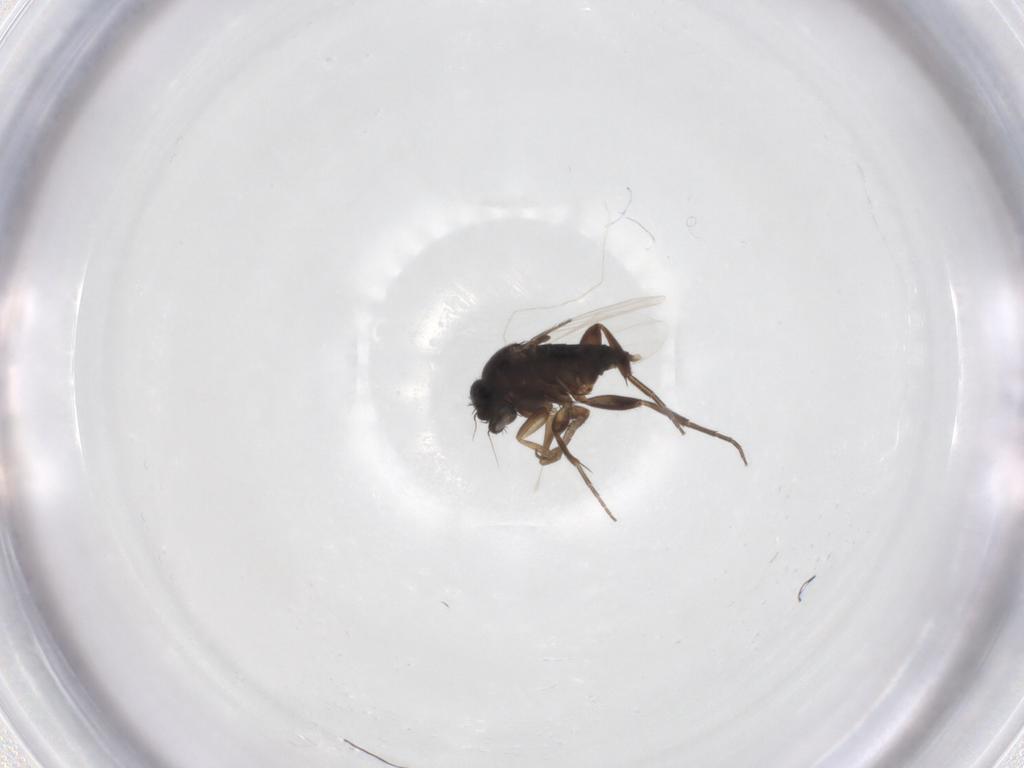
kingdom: Animalia
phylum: Arthropoda
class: Insecta
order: Diptera
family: Phoridae
